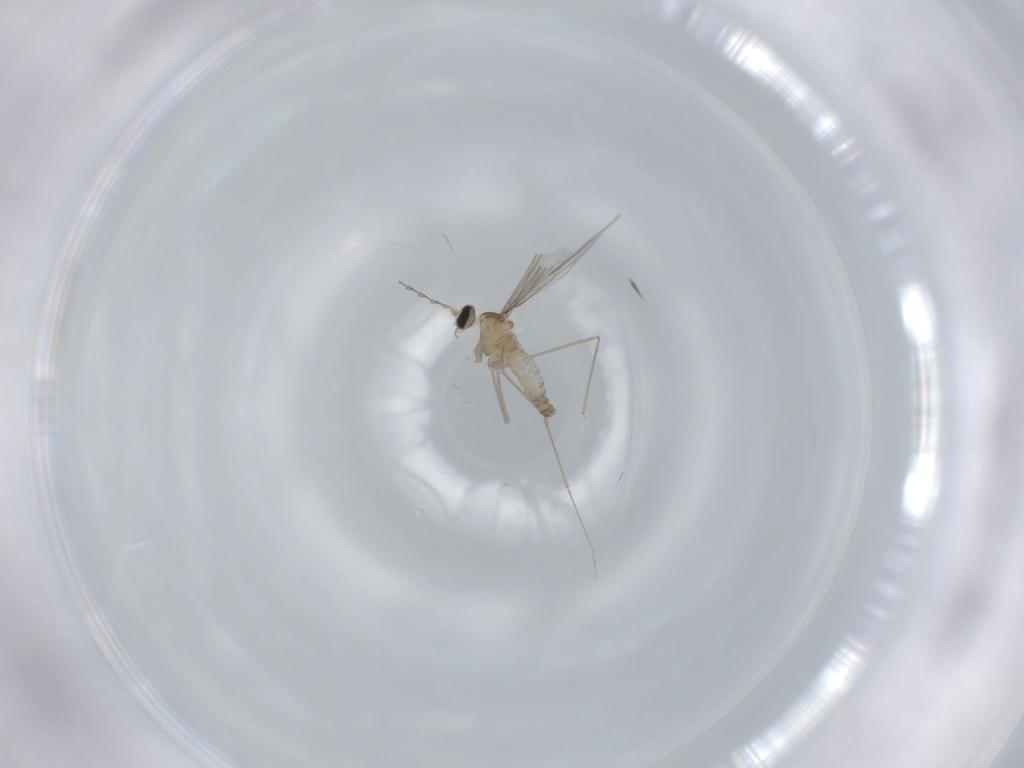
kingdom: Animalia
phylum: Arthropoda
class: Insecta
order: Diptera
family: Cecidomyiidae
